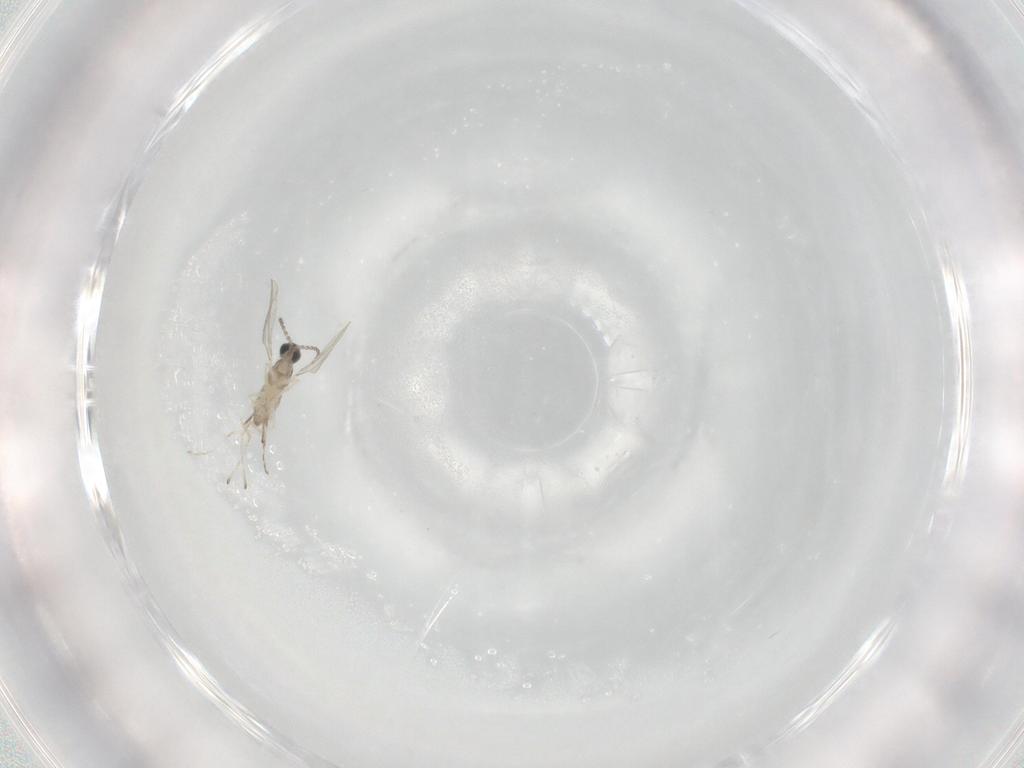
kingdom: Animalia
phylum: Arthropoda
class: Insecta
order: Diptera
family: Cecidomyiidae
